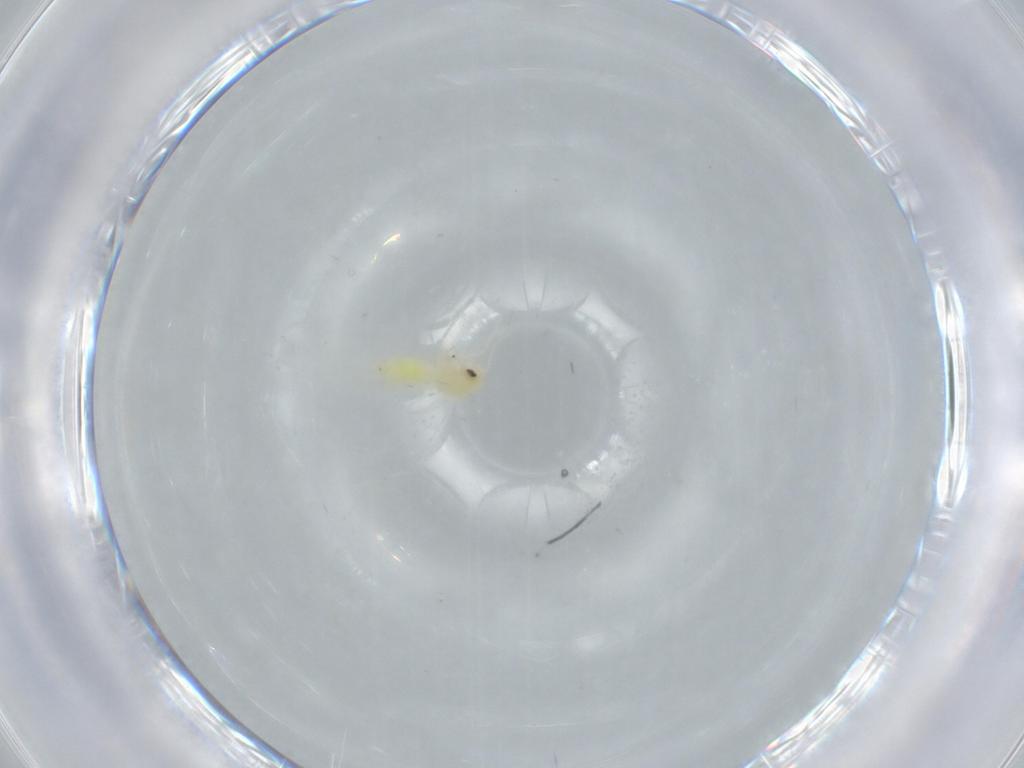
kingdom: Animalia
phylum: Arthropoda
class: Insecta
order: Hemiptera
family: Aleyrodidae
